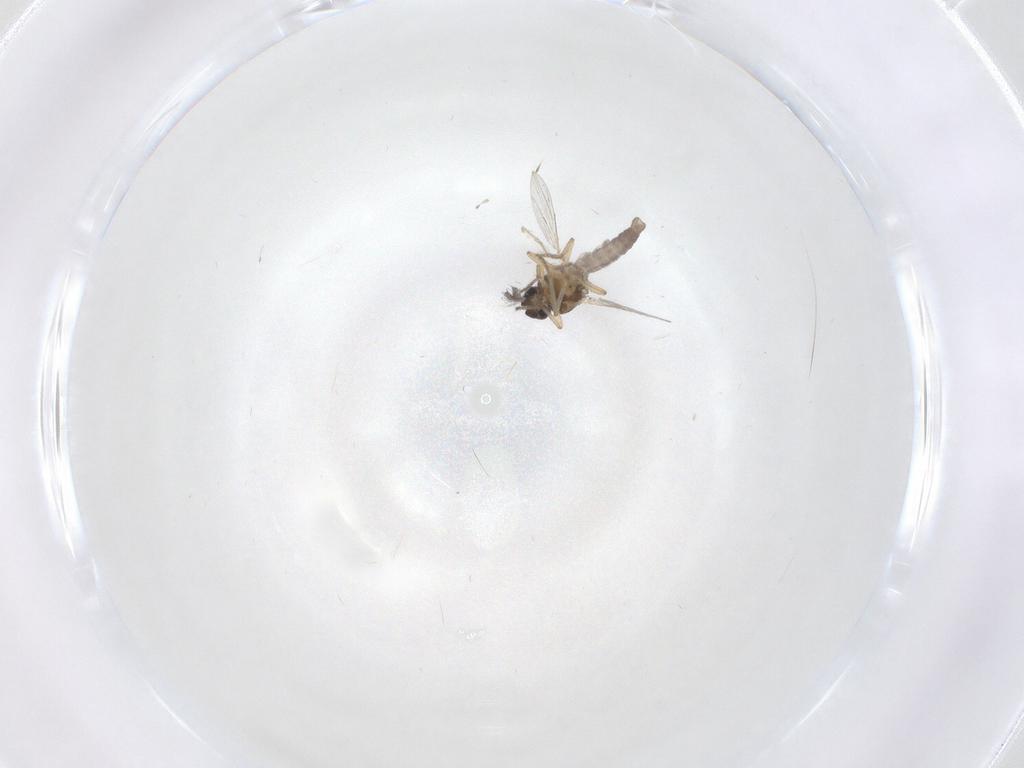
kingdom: Animalia
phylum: Arthropoda
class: Insecta
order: Diptera
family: Ceratopogonidae
